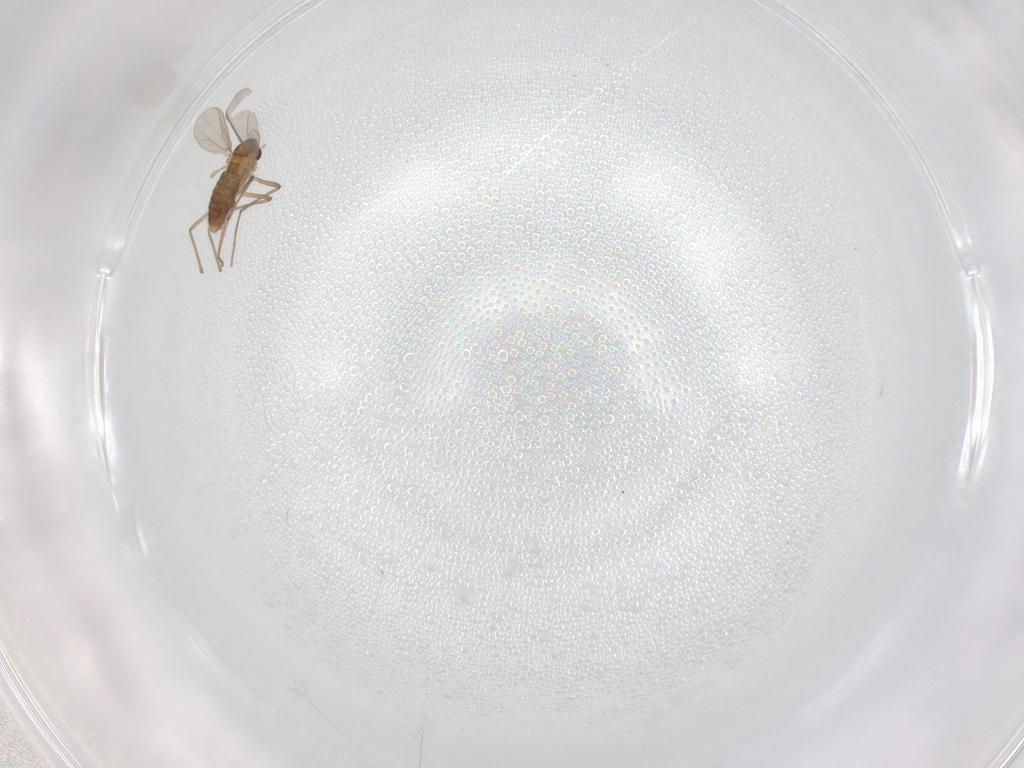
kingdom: Animalia
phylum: Arthropoda
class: Insecta
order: Diptera
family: Chironomidae
